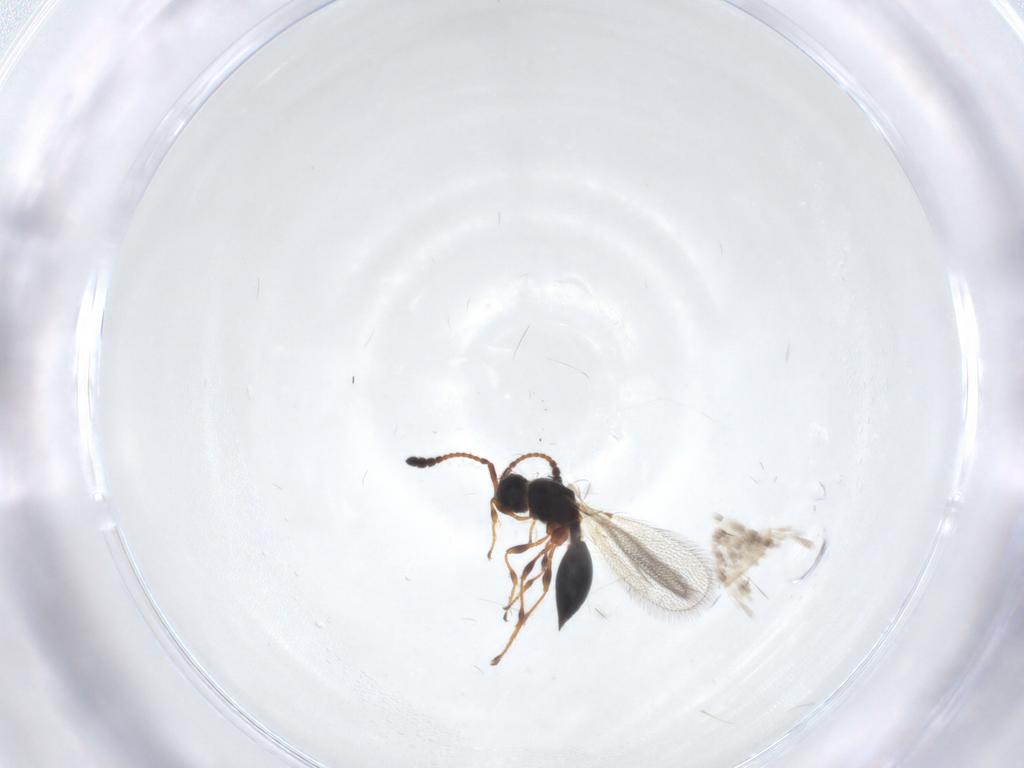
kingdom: Animalia
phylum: Arthropoda
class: Insecta
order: Hymenoptera
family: Diapriidae
